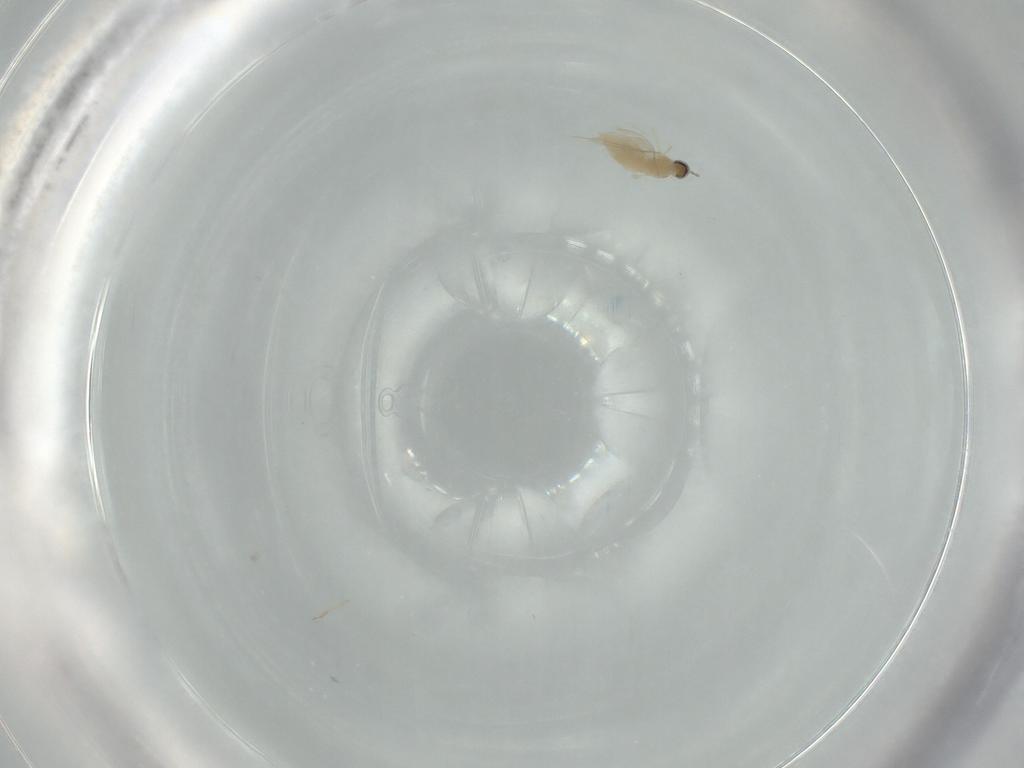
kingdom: Animalia
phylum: Arthropoda
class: Insecta
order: Diptera
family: Cecidomyiidae
